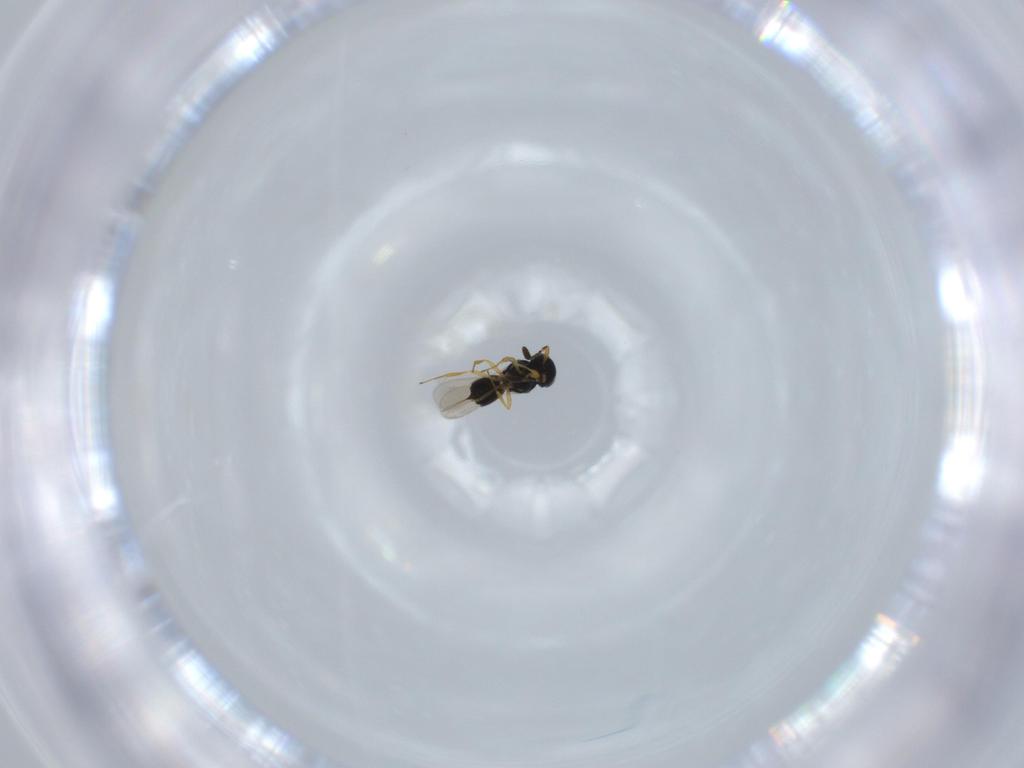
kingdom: Animalia
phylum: Arthropoda
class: Insecta
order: Hymenoptera
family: Scelionidae
